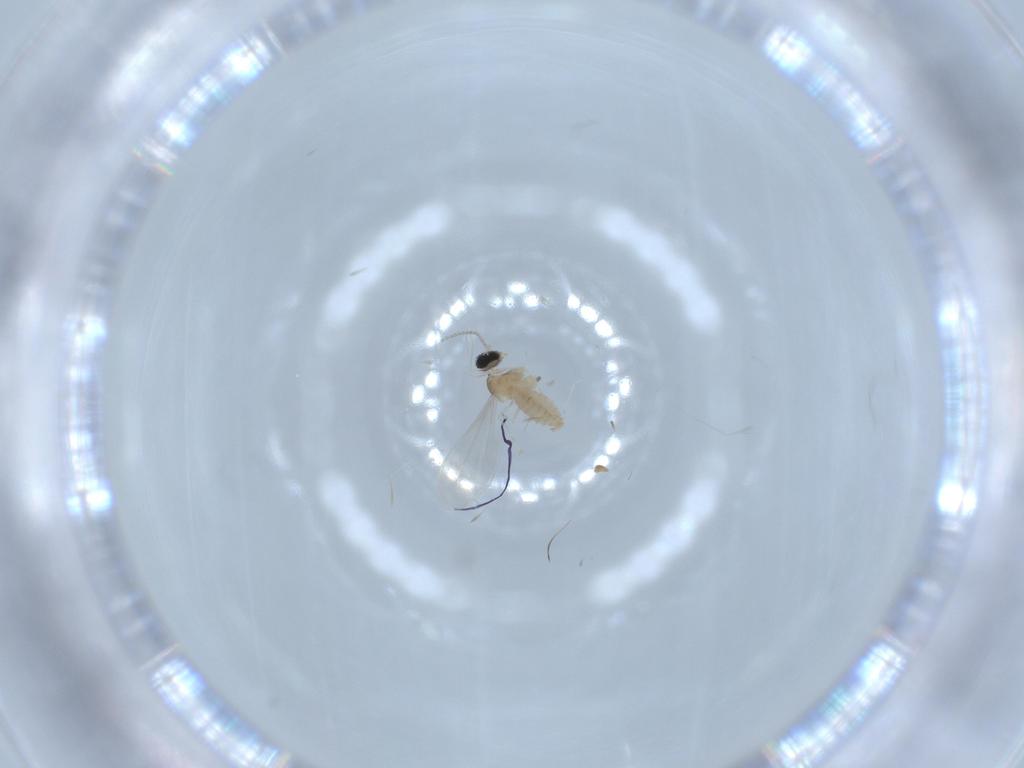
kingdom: Animalia
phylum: Arthropoda
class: Insecta
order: Diptera
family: Cecidomyiidae
